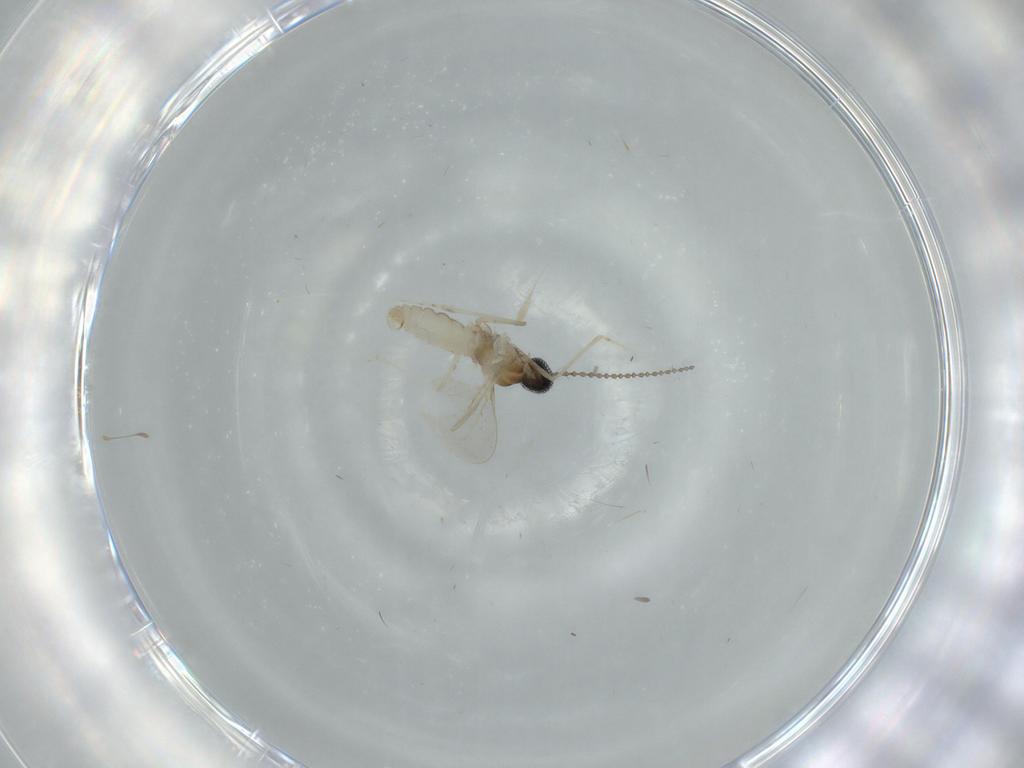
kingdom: Animalia
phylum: Arthropoda
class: Insecta
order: Diptera
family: Cecidomyiidae
